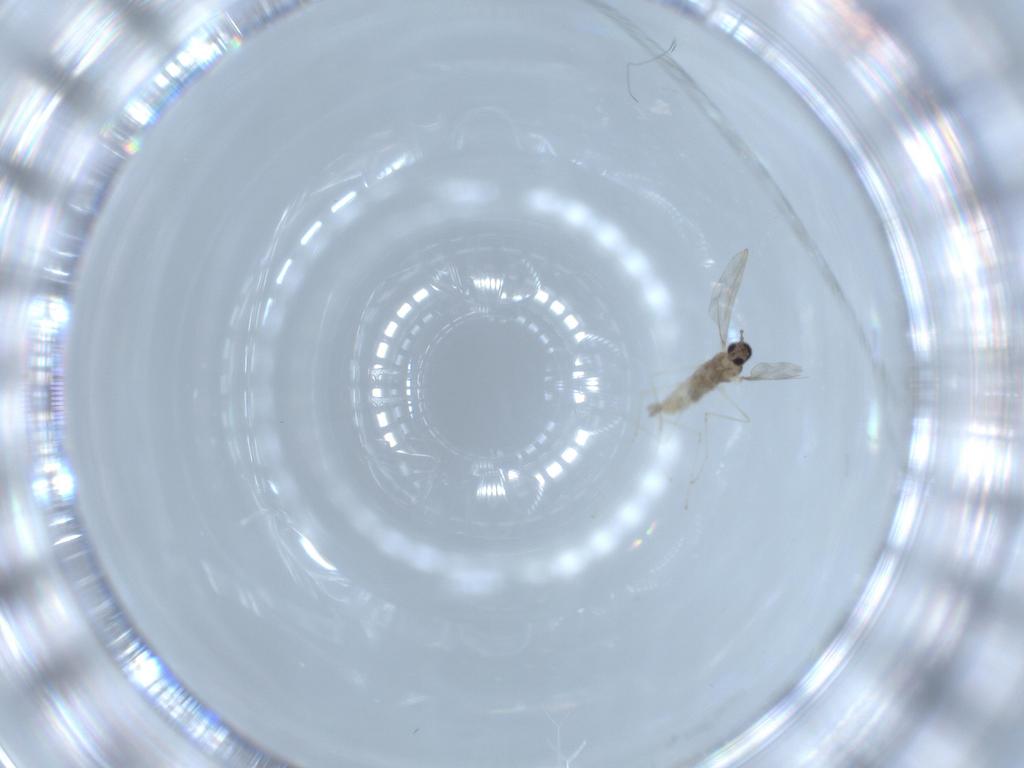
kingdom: Animalia
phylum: Arthropoda
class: Insecta
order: Diptera
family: Cecidomyiidae
